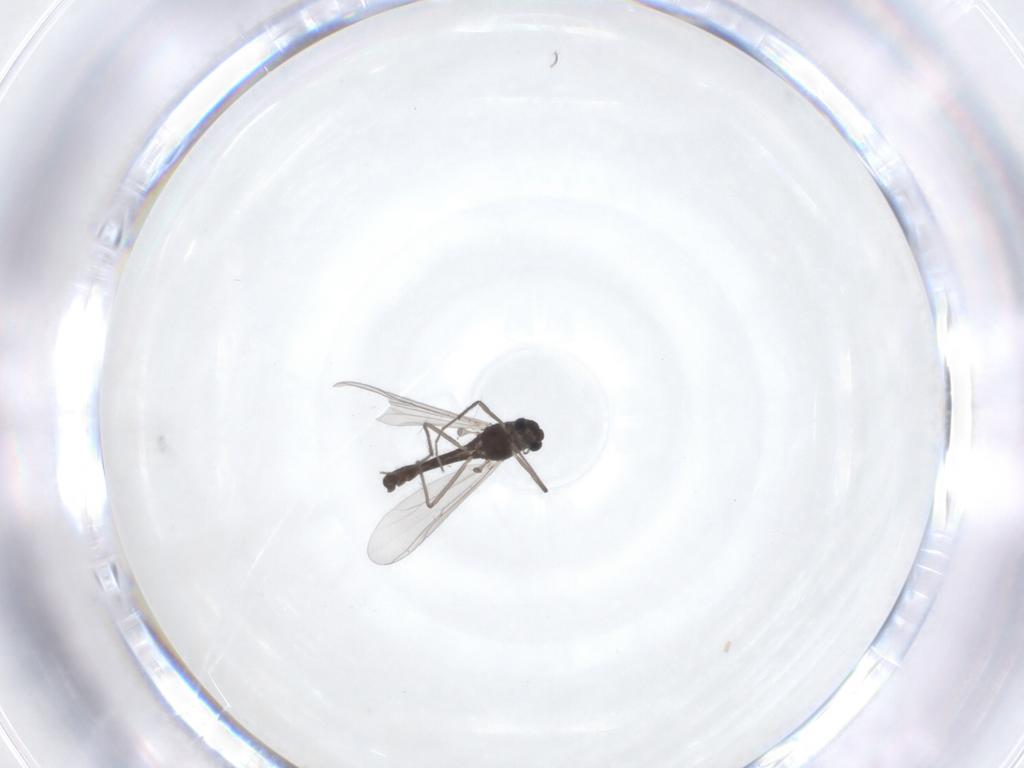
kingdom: Animalia
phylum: Arthropoda
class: Insecta
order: Diptera
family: Chironomidae
